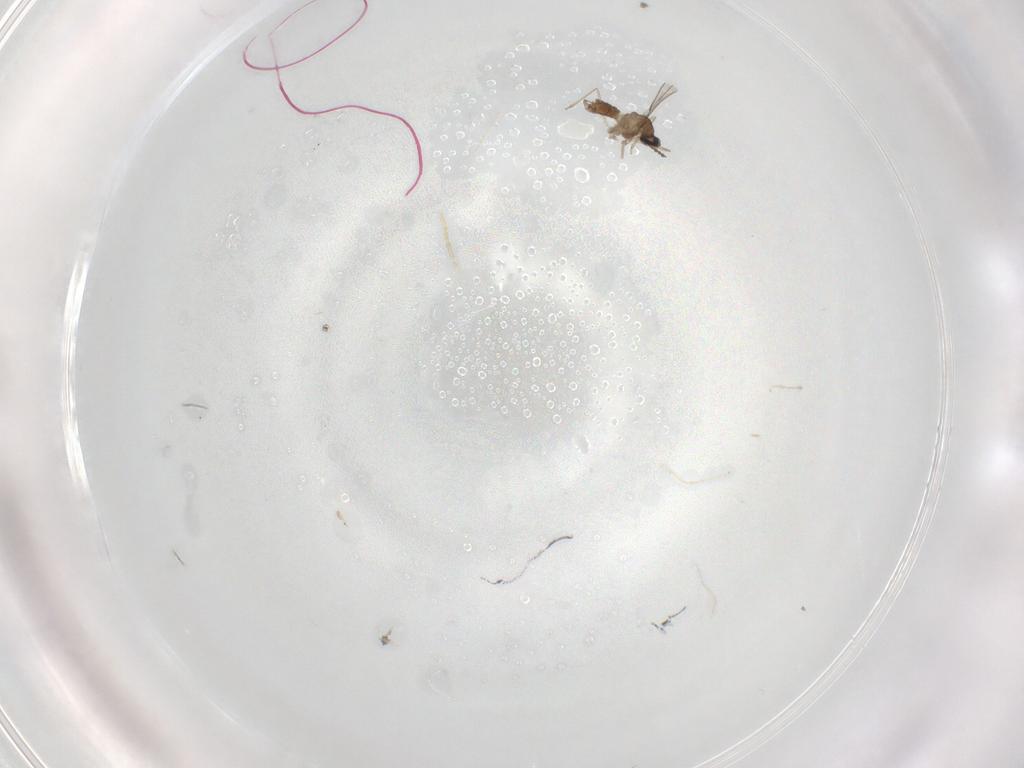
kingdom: Animalia
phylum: Arthropoda
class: Insecta
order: Diptera
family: Cecidomyiidae
